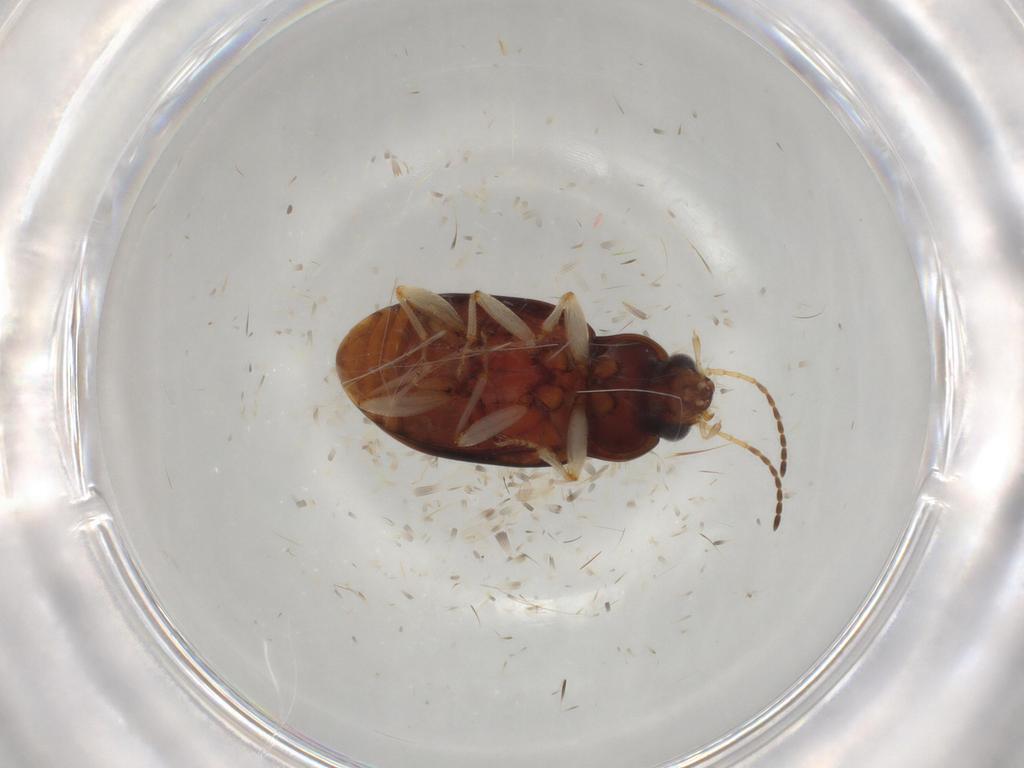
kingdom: Animalia
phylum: Arthropoda
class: Insecta
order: Coleoptera
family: Carabidae
